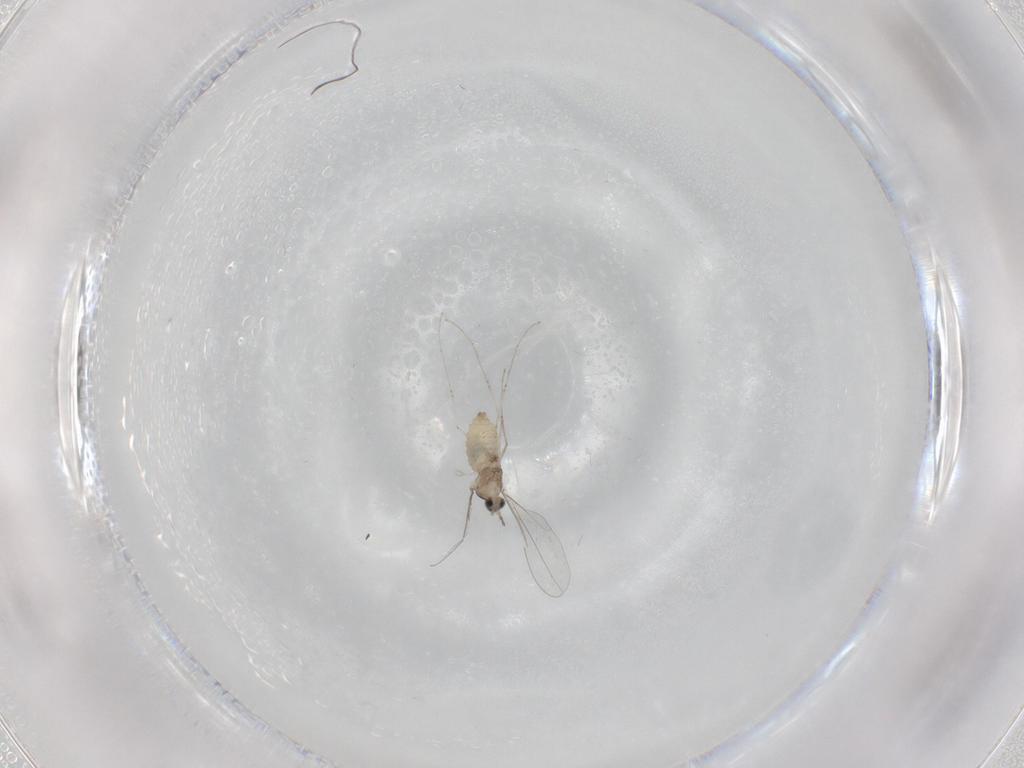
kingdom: Animalia
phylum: Arthropoda
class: Insecta
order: Diptera
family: Cecidomyiidae
